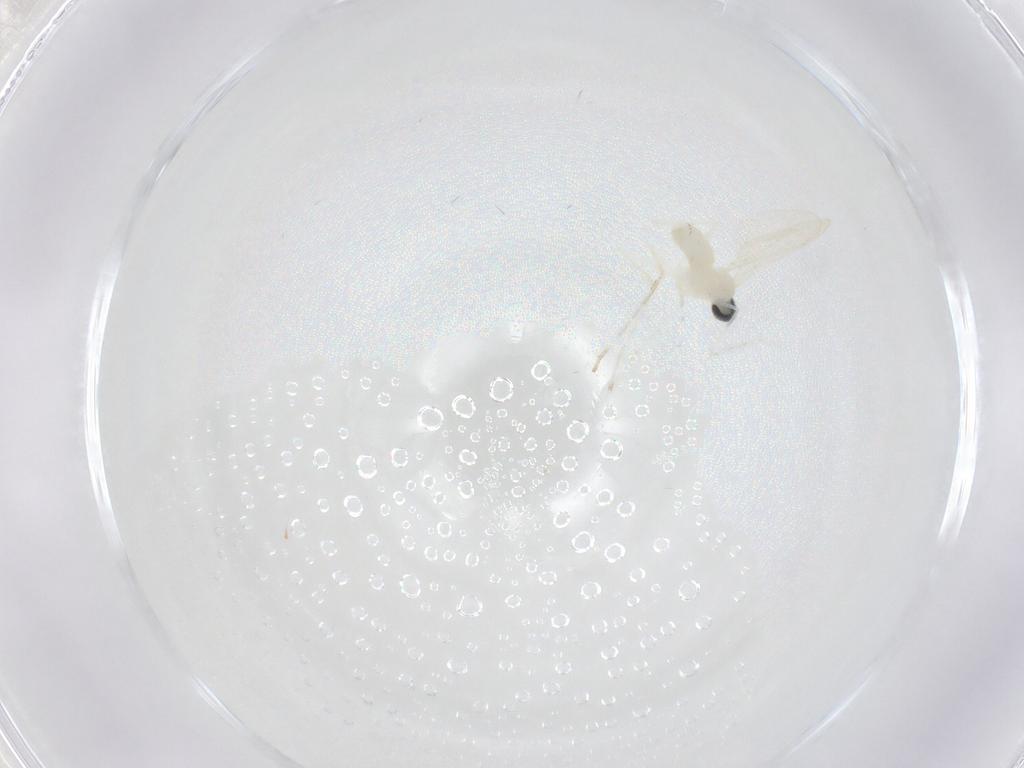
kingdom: Animalia
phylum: Arthropoda
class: Insecta
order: Diptera
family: Cecidomyiidae
